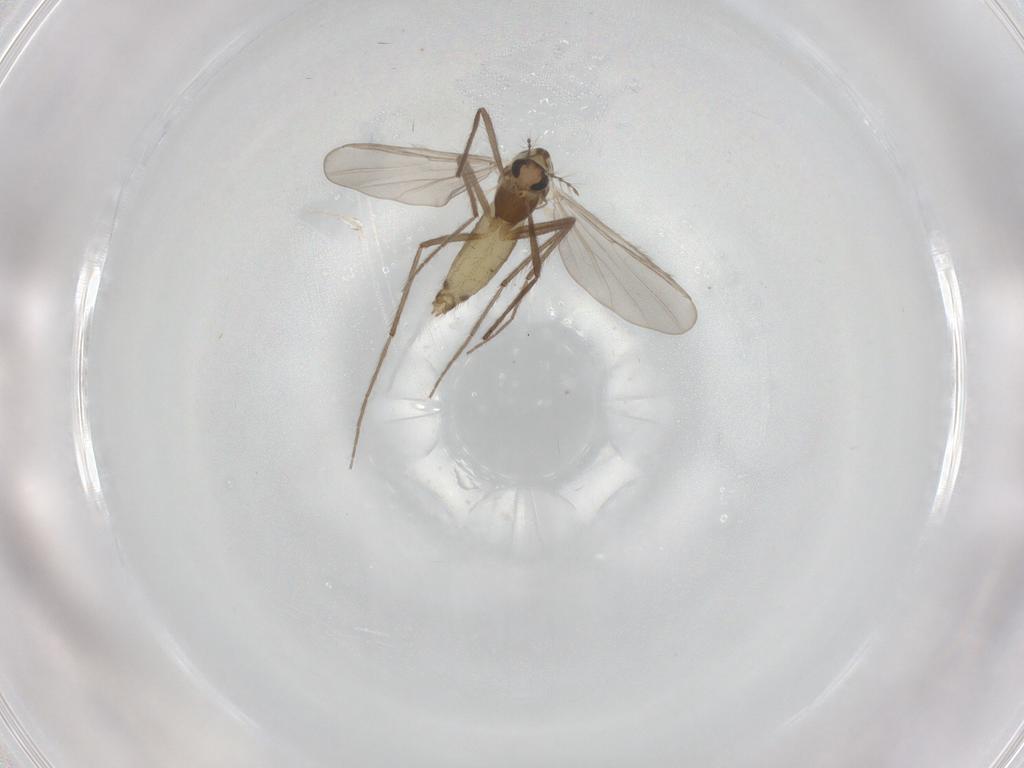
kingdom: Animalia
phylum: Arthropoda
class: Insecta
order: Diptera
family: Chironomidae
